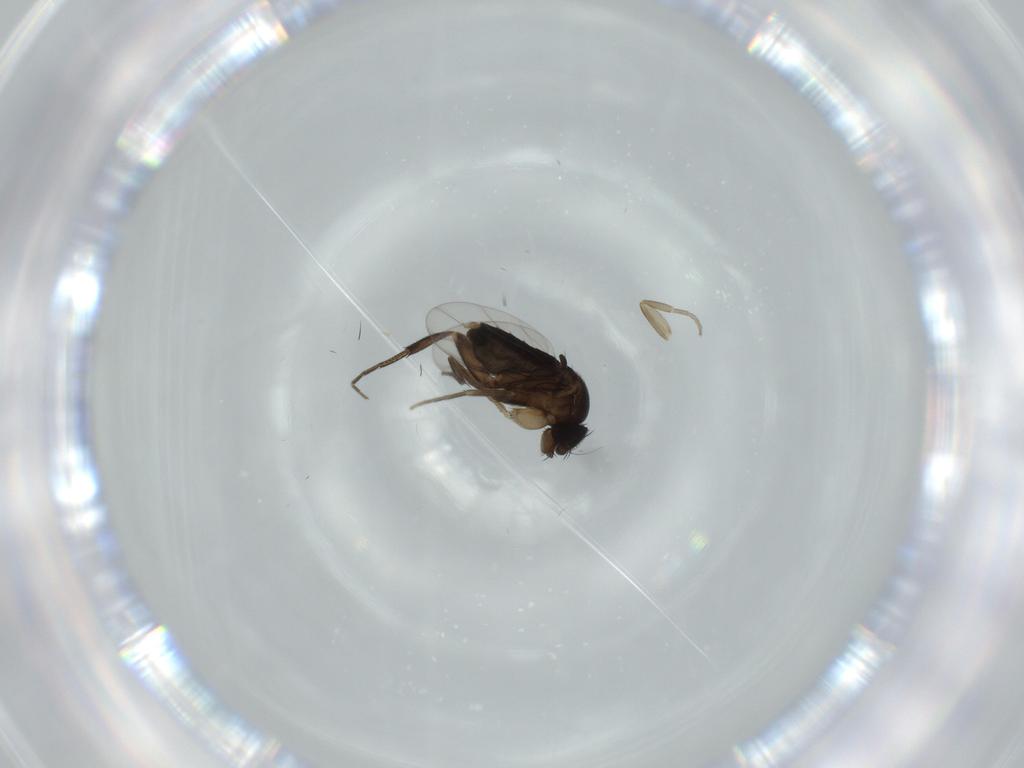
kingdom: Animalia
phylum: Arthropoda
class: Insecta
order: Diptera
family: Phoridae
